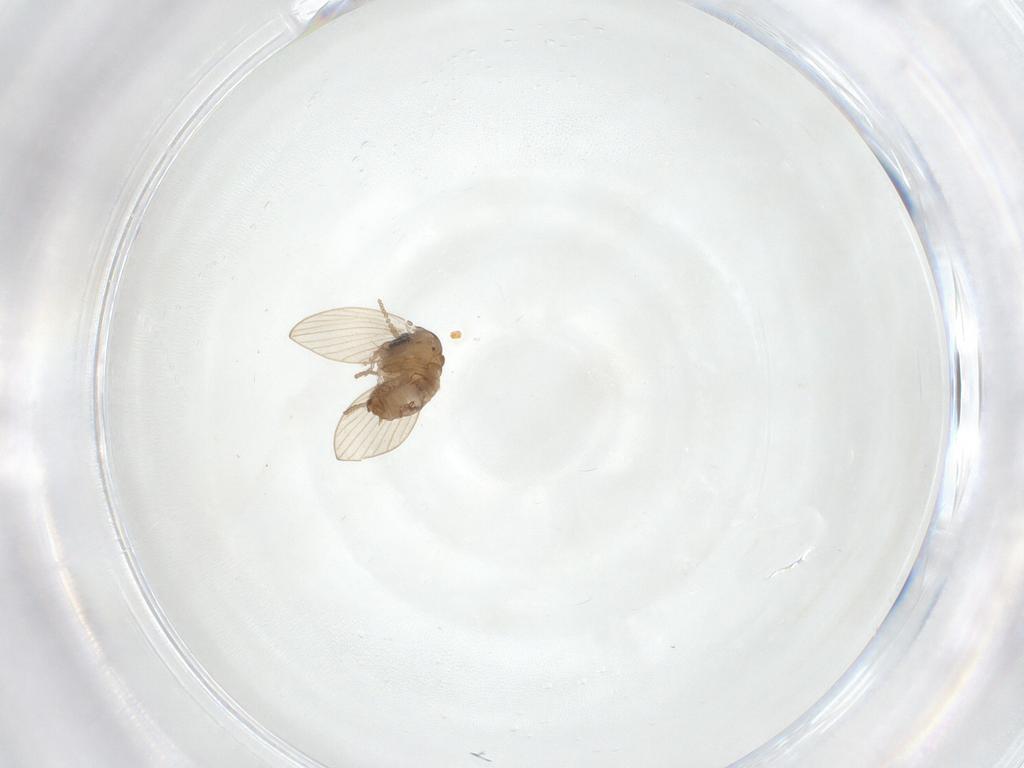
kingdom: Animalia
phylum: Arthropoda
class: Insecta
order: Diptera
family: Psychodidae
